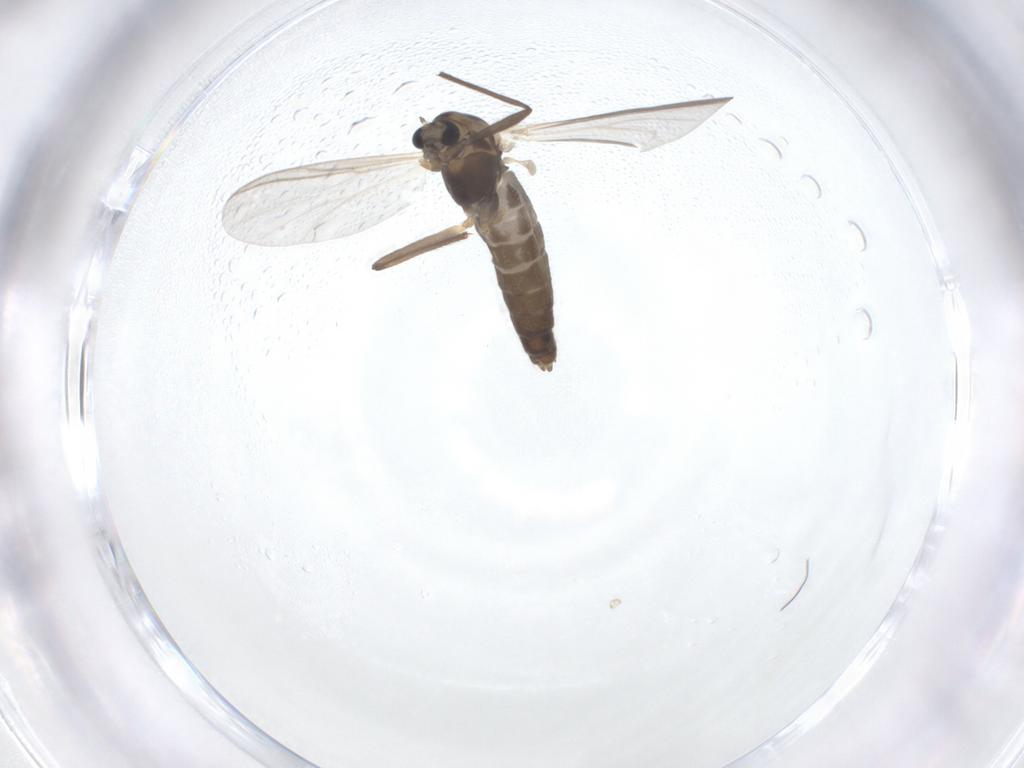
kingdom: Animalia
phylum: Arthropoda
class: Insecta
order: Diptera
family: Chironomidae
